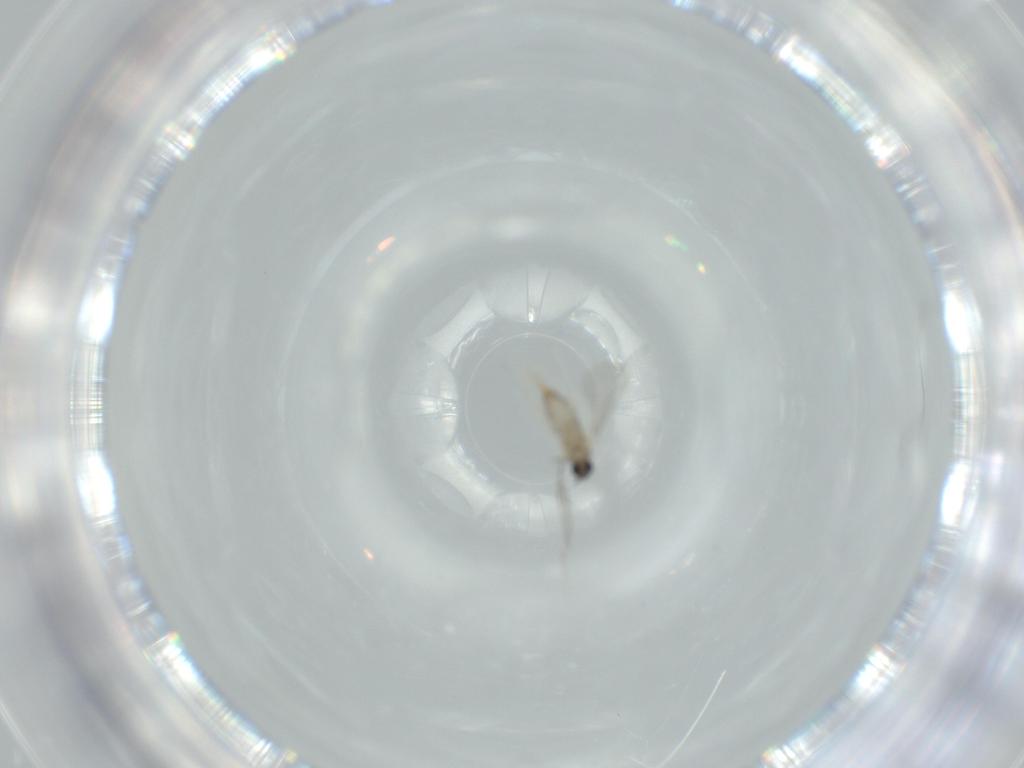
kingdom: Animalia
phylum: Arthropoda
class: Insecta
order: Diptera
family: Cecidomyiidae
